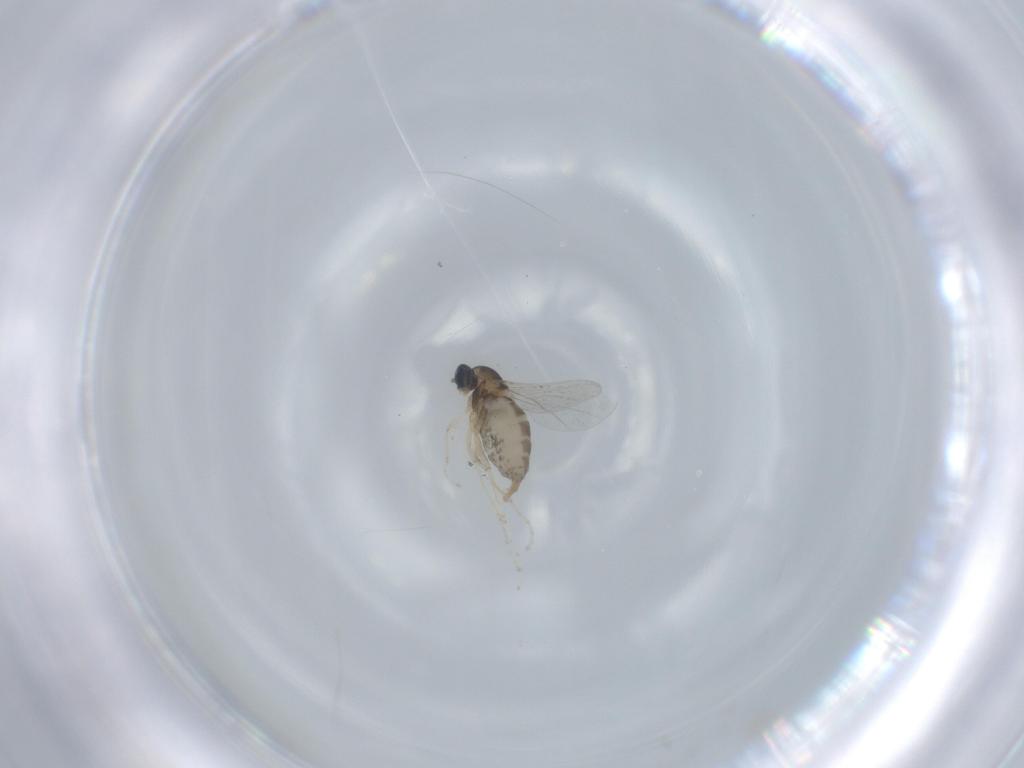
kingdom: Animalia
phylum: Arthropoda
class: Insecta
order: Diptera
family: Cecidomyiidae
